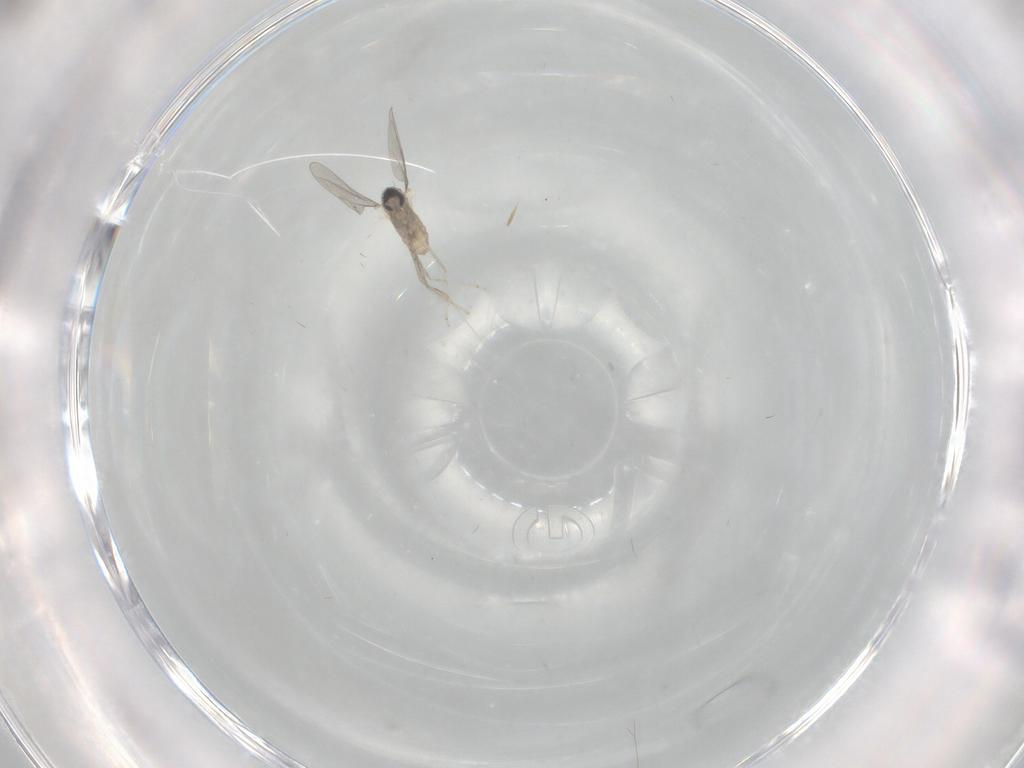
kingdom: Animalia
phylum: Arthropoda
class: Insecta
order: Diptera
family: Cecidomyiidae
